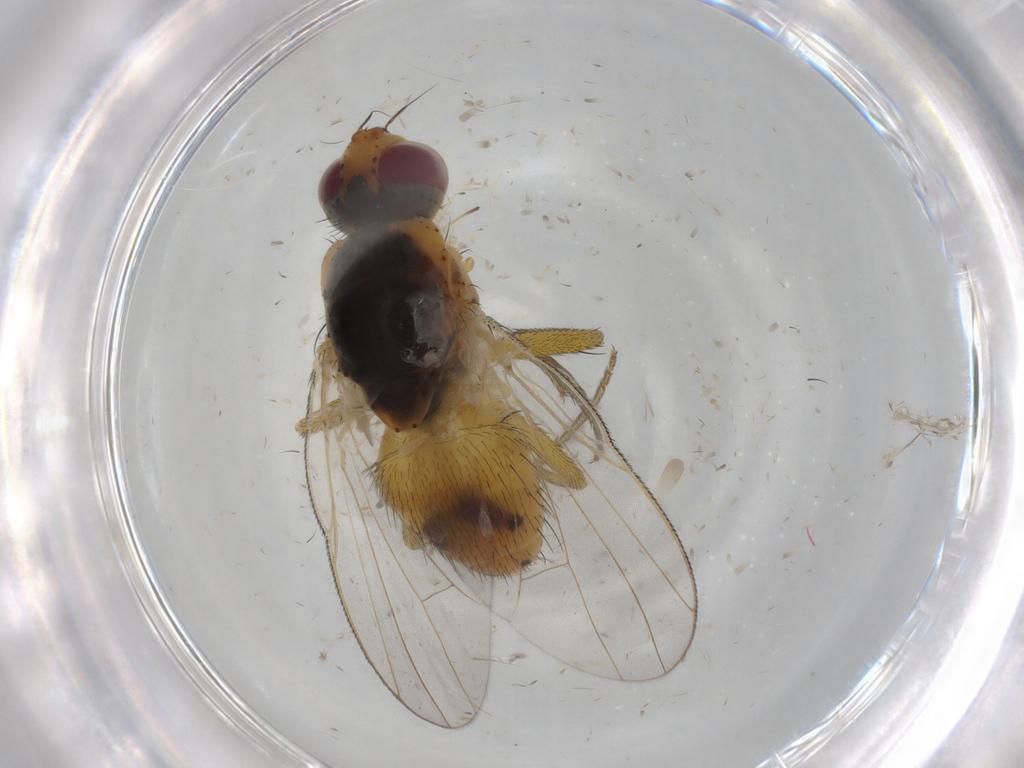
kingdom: Animalia
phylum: Arthropoda
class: Insecta
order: Diptera
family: Muscidae
